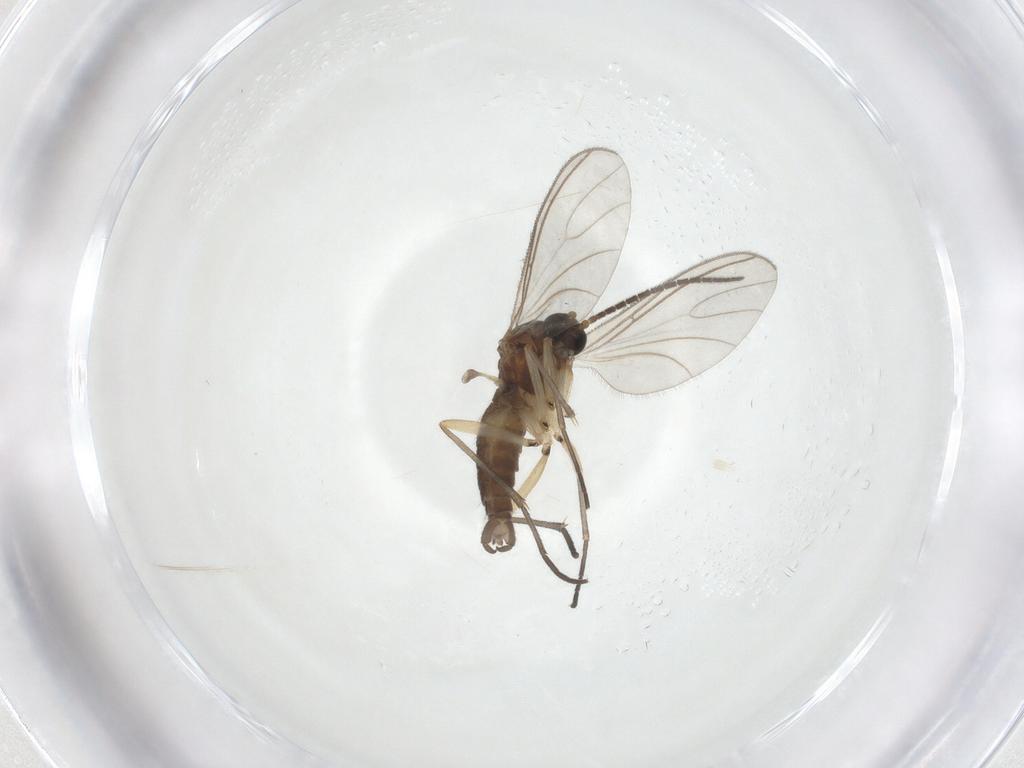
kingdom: Animalia
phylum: Arthropoda
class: Insecta
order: Diptera
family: Sciaridae
